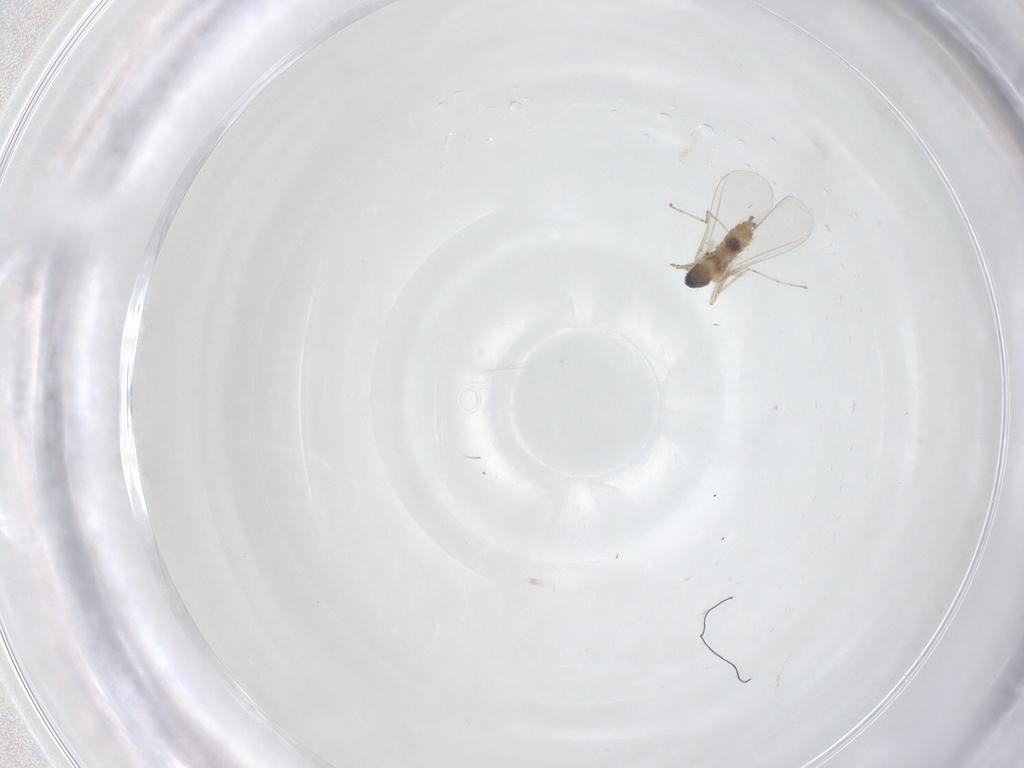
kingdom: Animalia
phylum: Arthropoda
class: Insecta
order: Diptera
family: Cecidomyiidae
